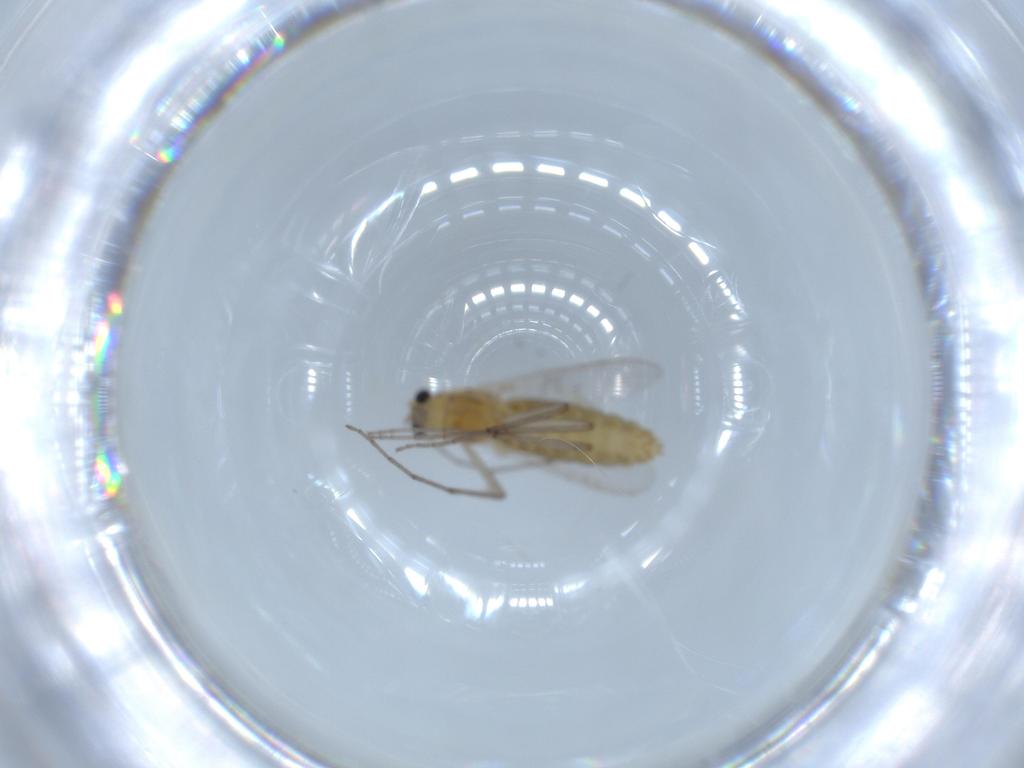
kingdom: Animalia
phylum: Arthropoda
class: Insecta
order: Diptera
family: Chironomidae
